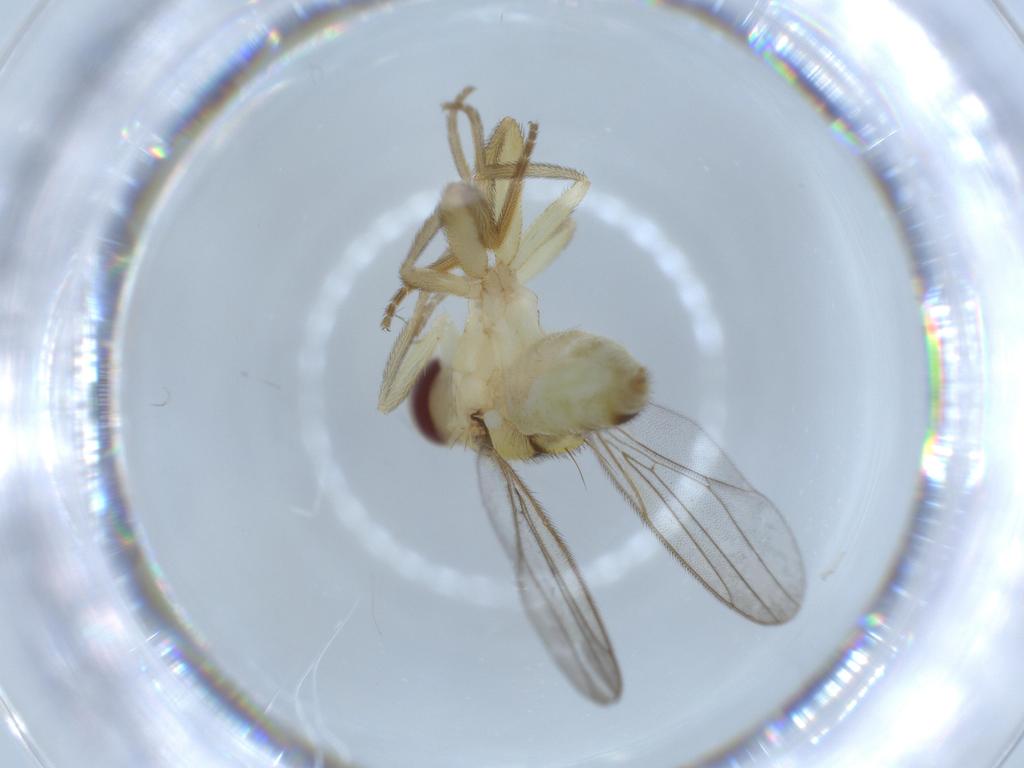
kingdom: Animalia
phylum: Arthropoda
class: Insecta
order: Diptera
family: Chloropidae
